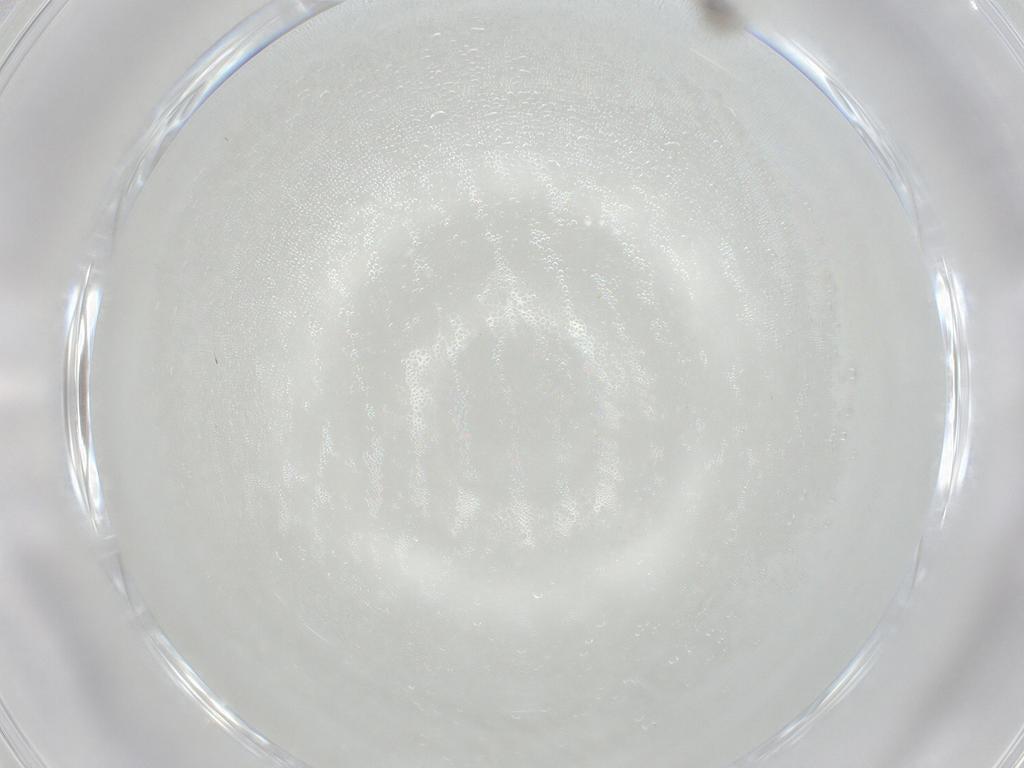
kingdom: Animalia
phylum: Arthropoda
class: Insecta
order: Diptera
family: Chironomidae
